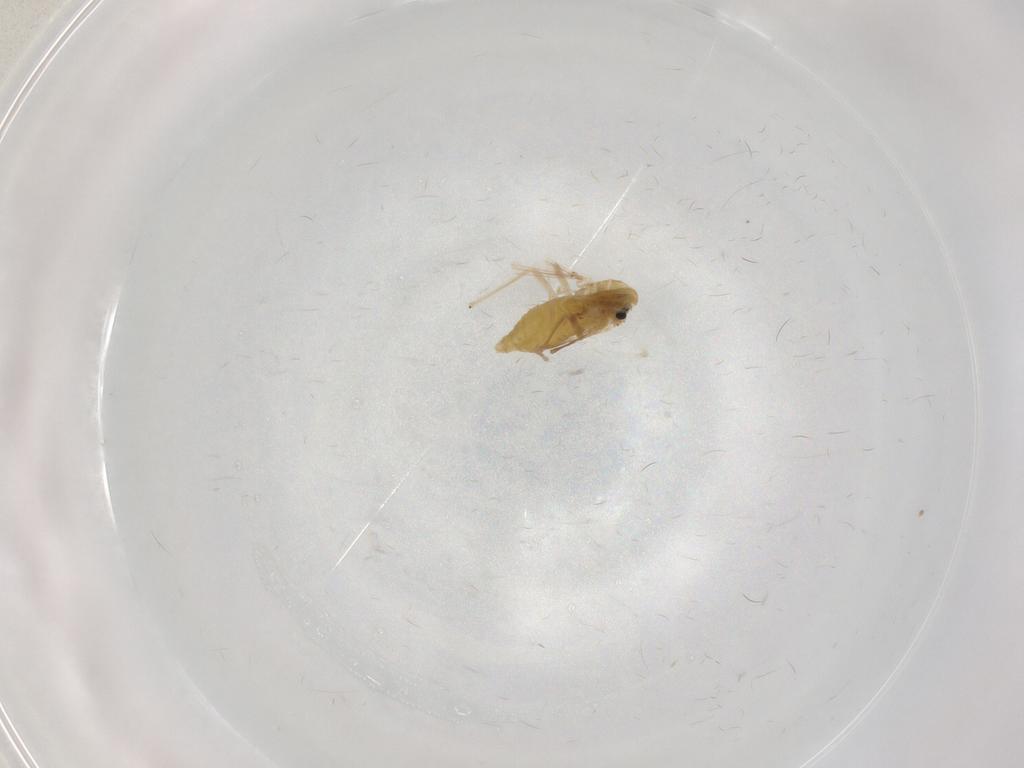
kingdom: Animalia
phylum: Arthropoda
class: Insecta
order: Diptera
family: Chironomidae
